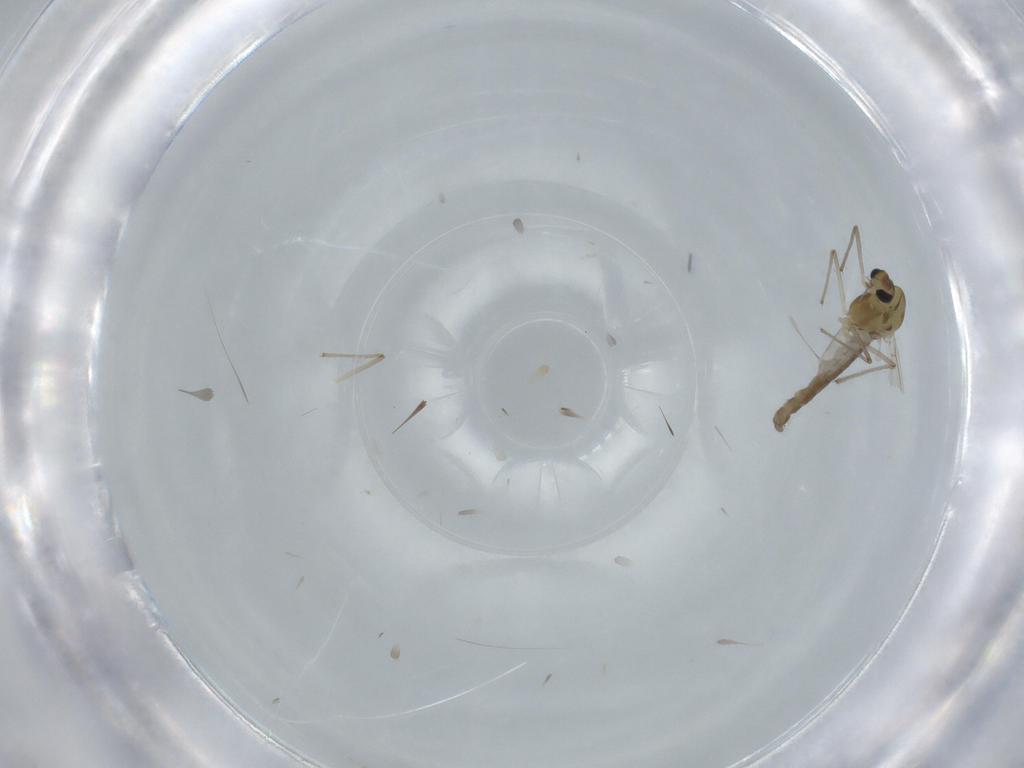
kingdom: Animalia
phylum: Arthropoda
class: Insecta
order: Diptera
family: Chironomidae
